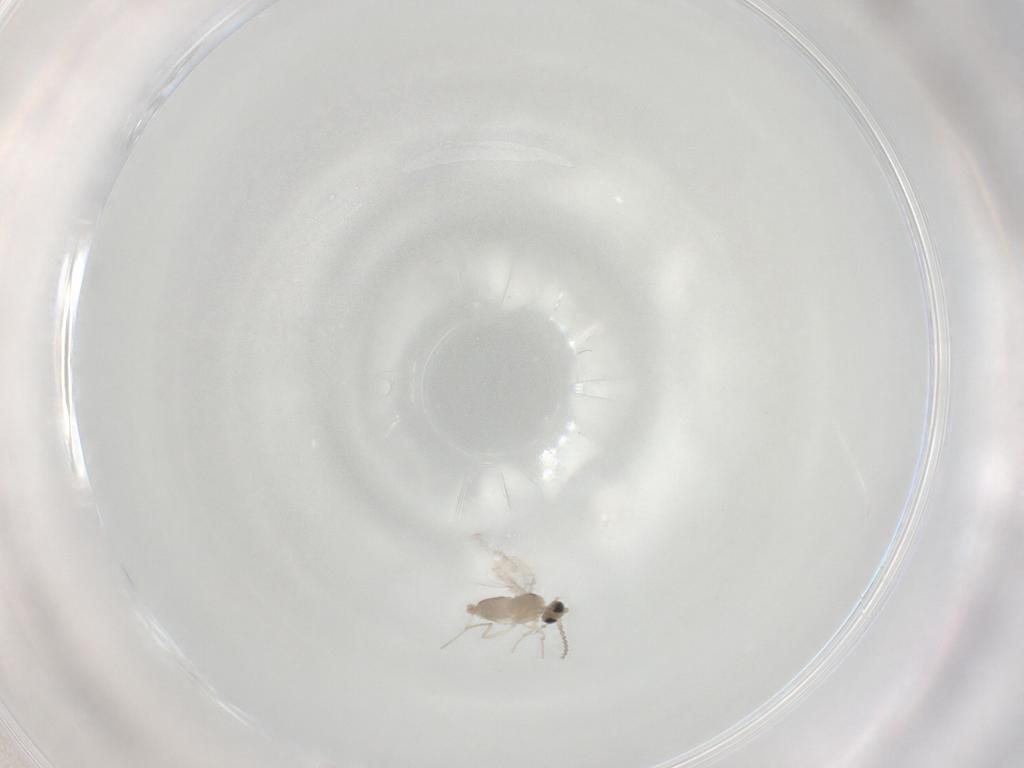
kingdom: Animalia
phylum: Arthropoda
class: Insecta
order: Diptera
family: Cecidomyiidae
